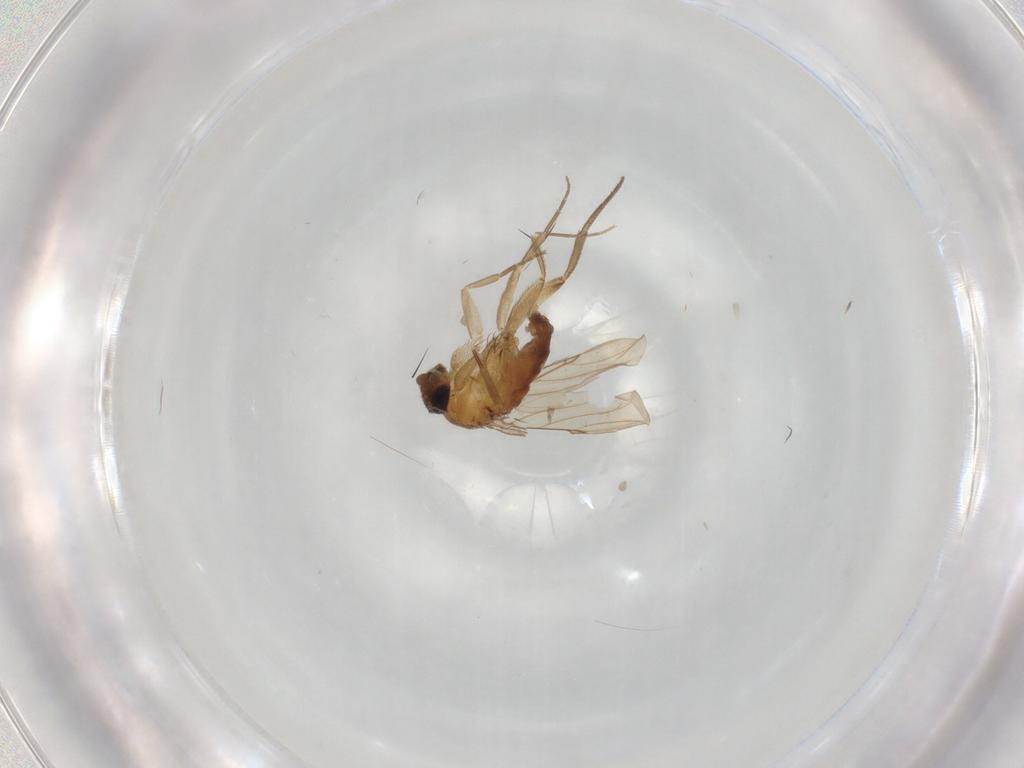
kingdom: Animalia
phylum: Arthropoda
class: Insecta
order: Diptera
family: Phoridae
